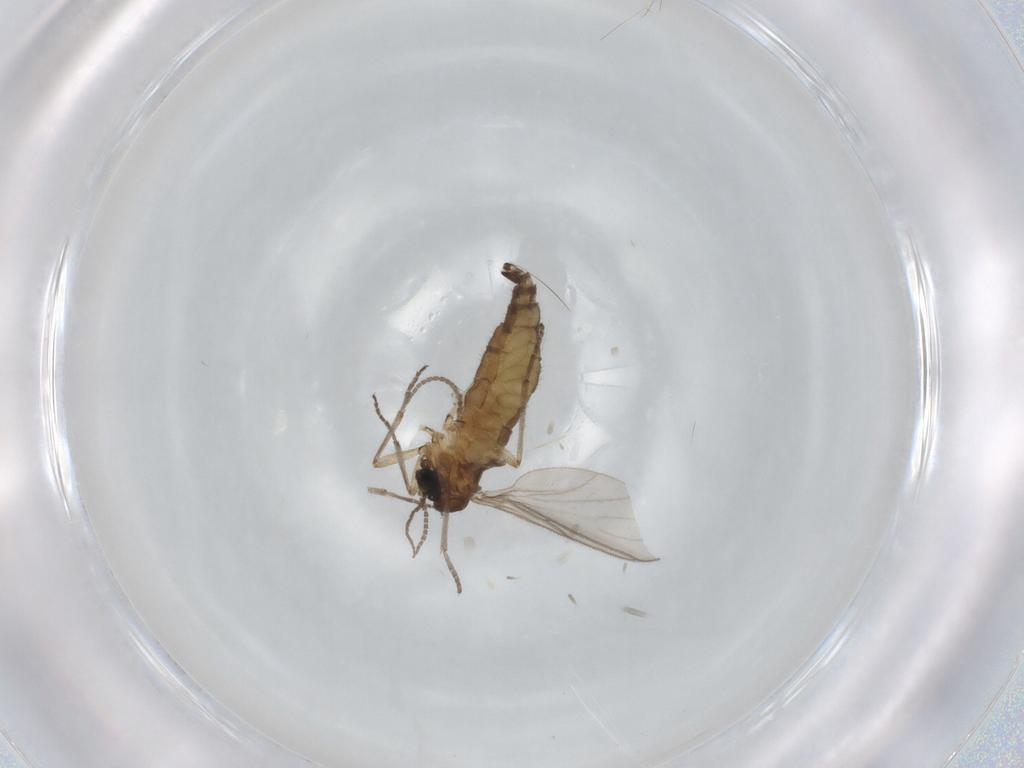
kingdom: Animalia
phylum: Arthropoda
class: Insecta
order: Diptera
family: Sciaridae
